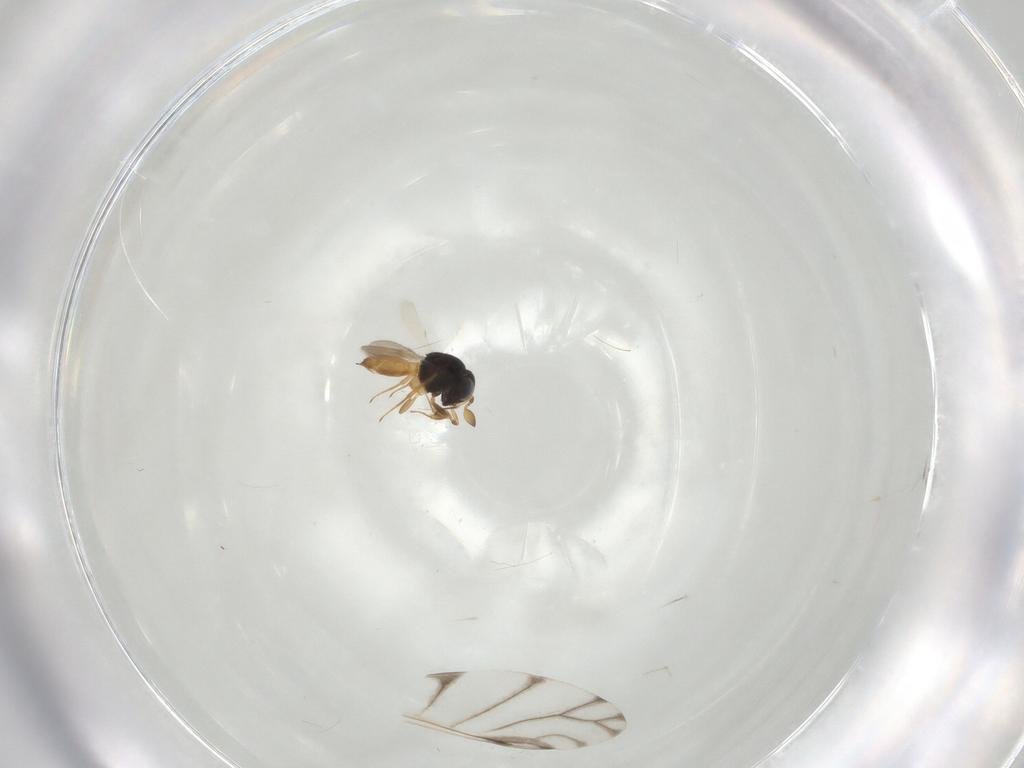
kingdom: Animalia
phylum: Arthropoda
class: Insecta
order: Hymenoptera
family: Scelionidae
